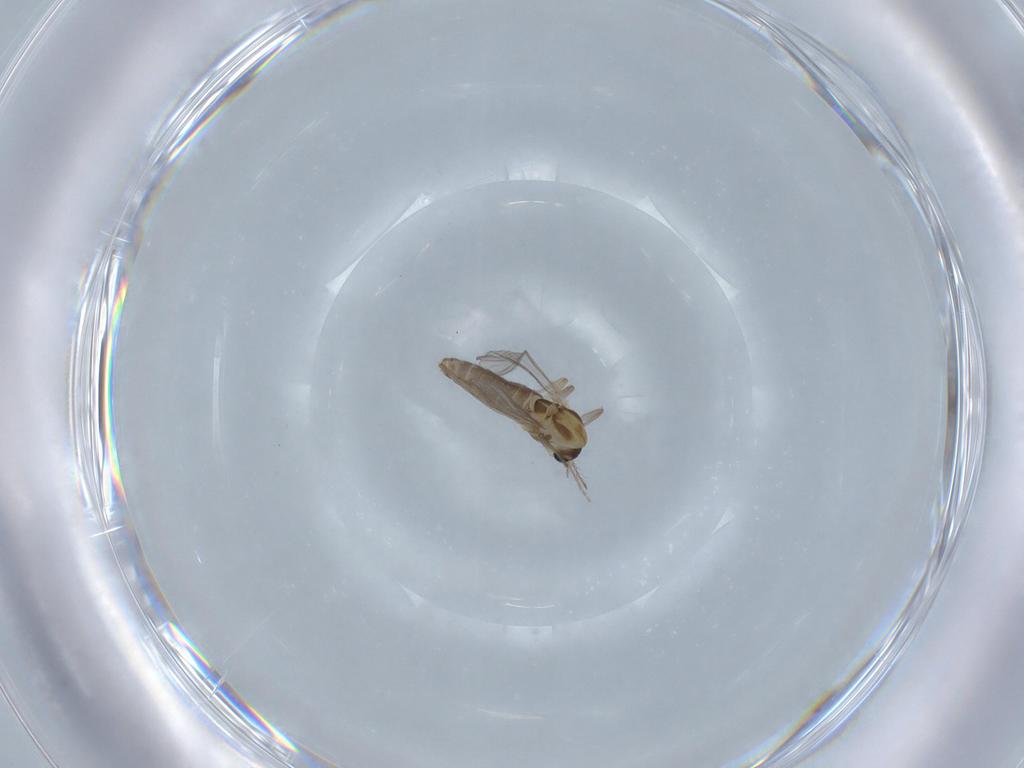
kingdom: Animalia
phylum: Arthropoda
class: Insecta
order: Diptera
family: Chironomidae
